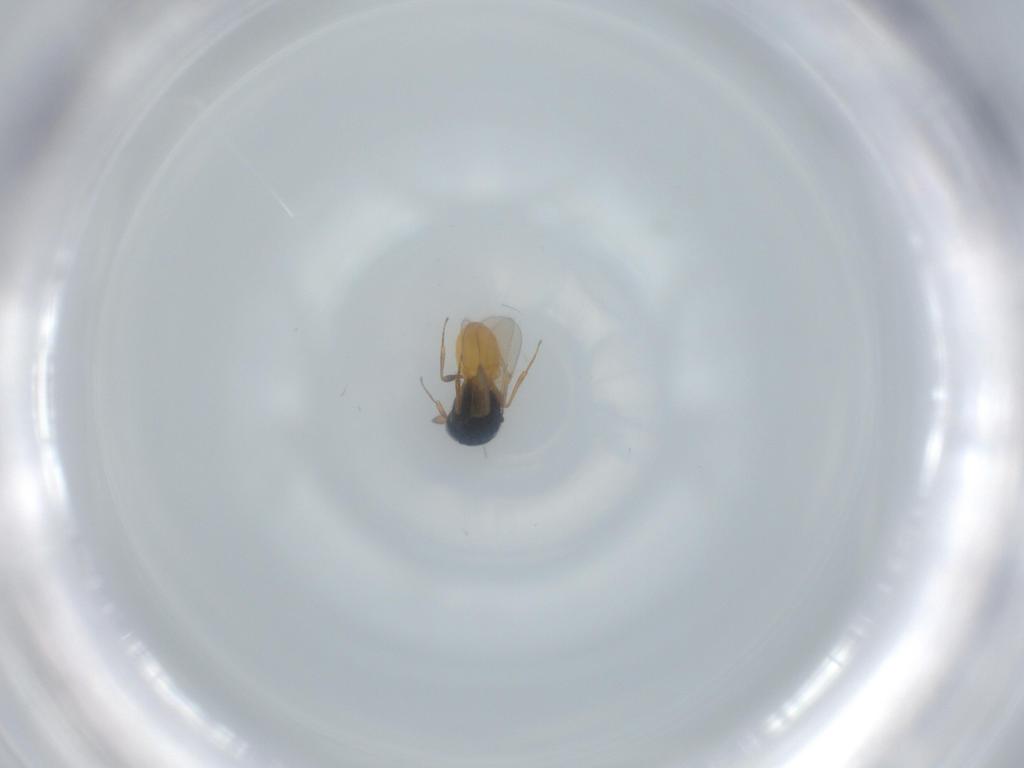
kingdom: Animalia
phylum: Arthropoda
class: Insecta
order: Hymenoptera
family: Scelionidae
